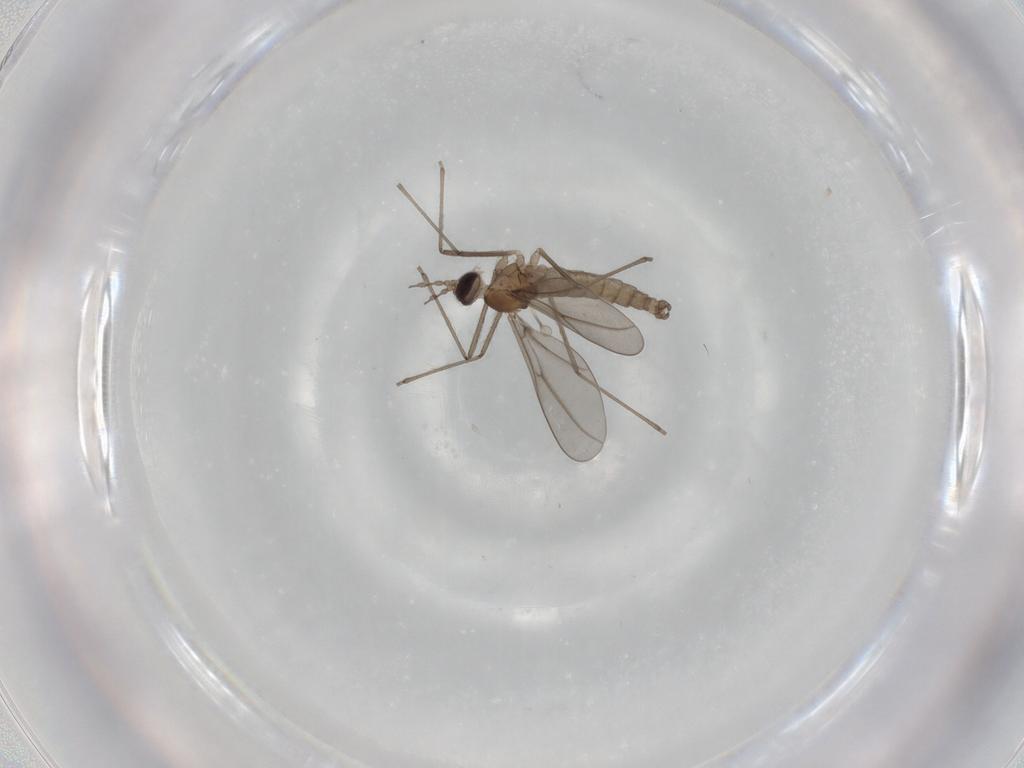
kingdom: Animalia
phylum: Arthropoda
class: Insecta
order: Diptera
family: Cecidomyiidae
